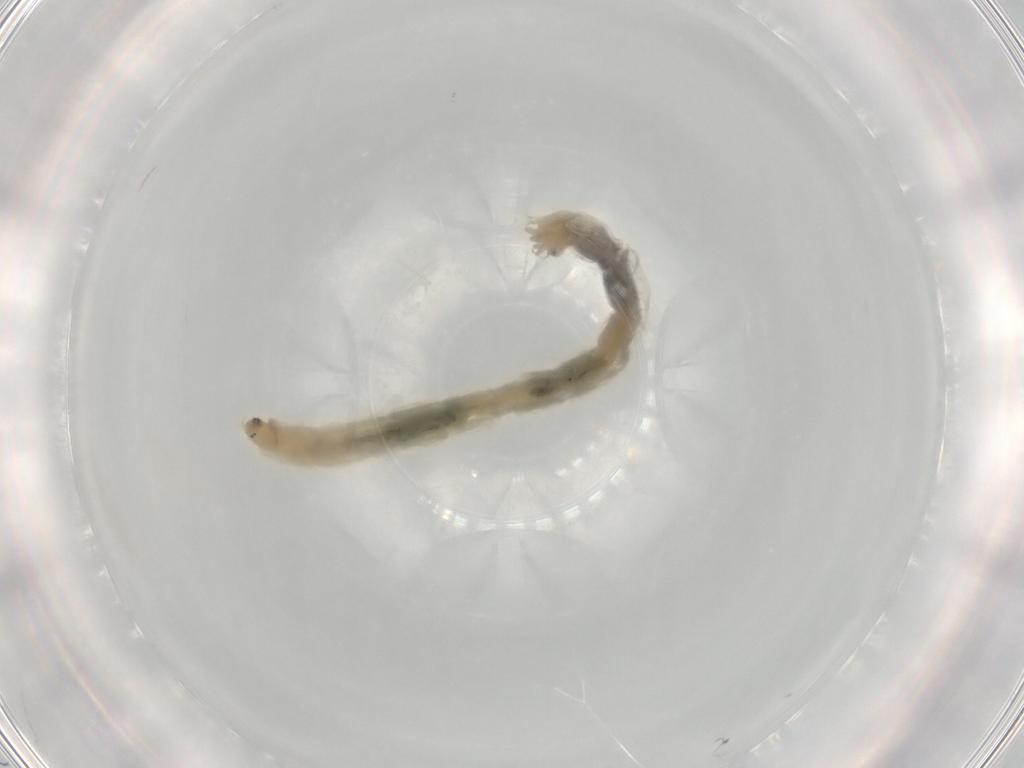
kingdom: Animalia
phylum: Arthropoda
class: Insecta
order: Diptera
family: Chironomidae
